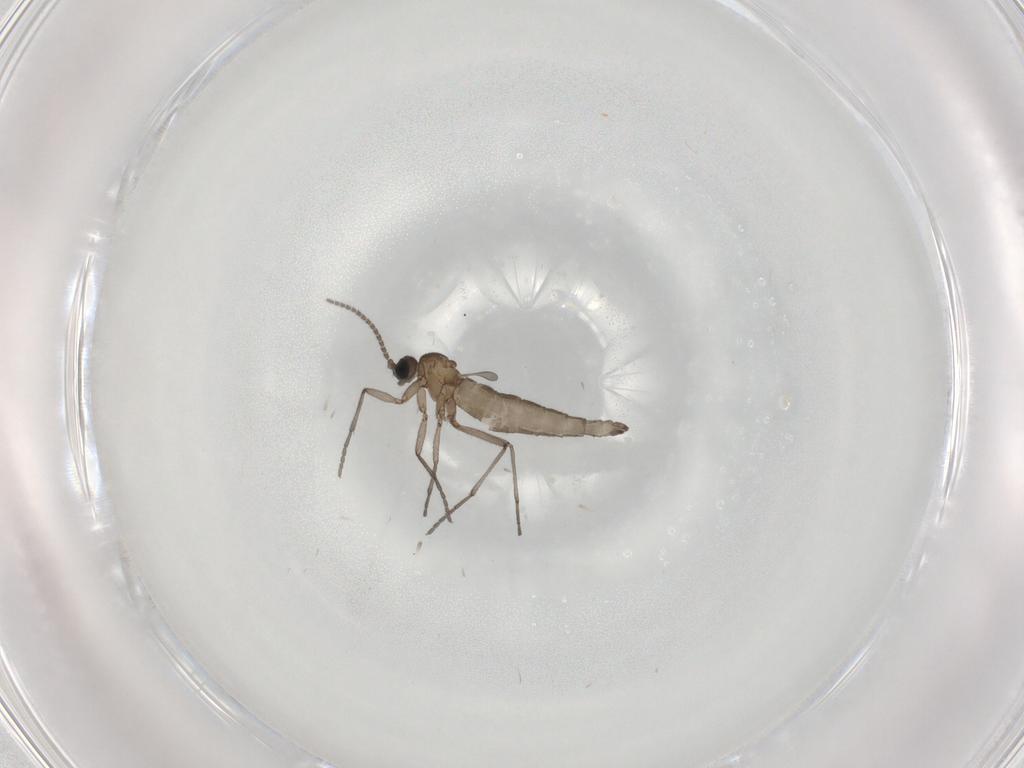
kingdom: Animalia
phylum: Arthropoda
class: Insecta
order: Diptera
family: Sciaridae
